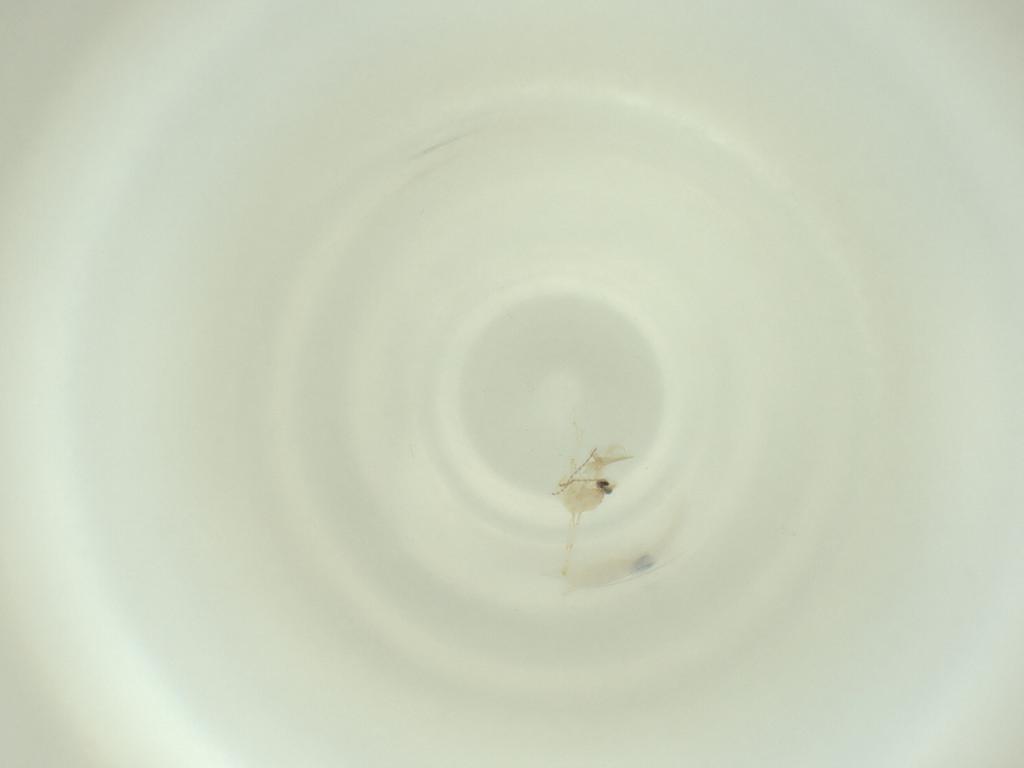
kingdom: Animalia
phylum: Arthropoda
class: Insecta
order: Diptera
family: Cecidomyiidae
